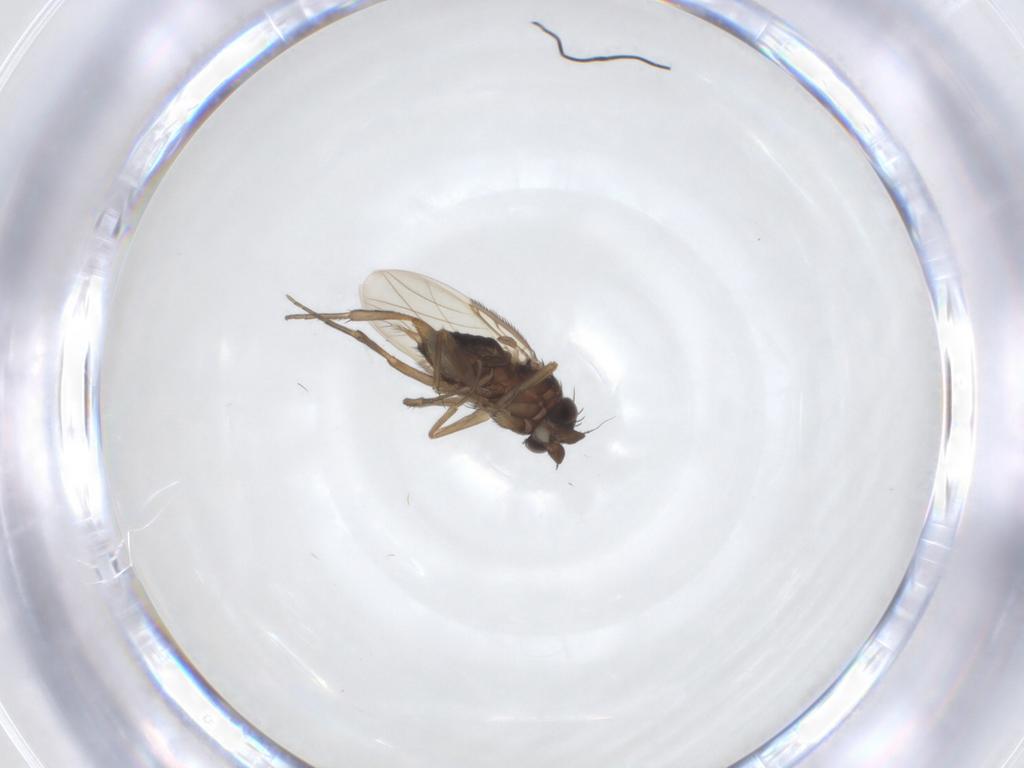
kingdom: Animalia
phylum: Arthropoda
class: Insecta
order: Diptera
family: Phoridae
